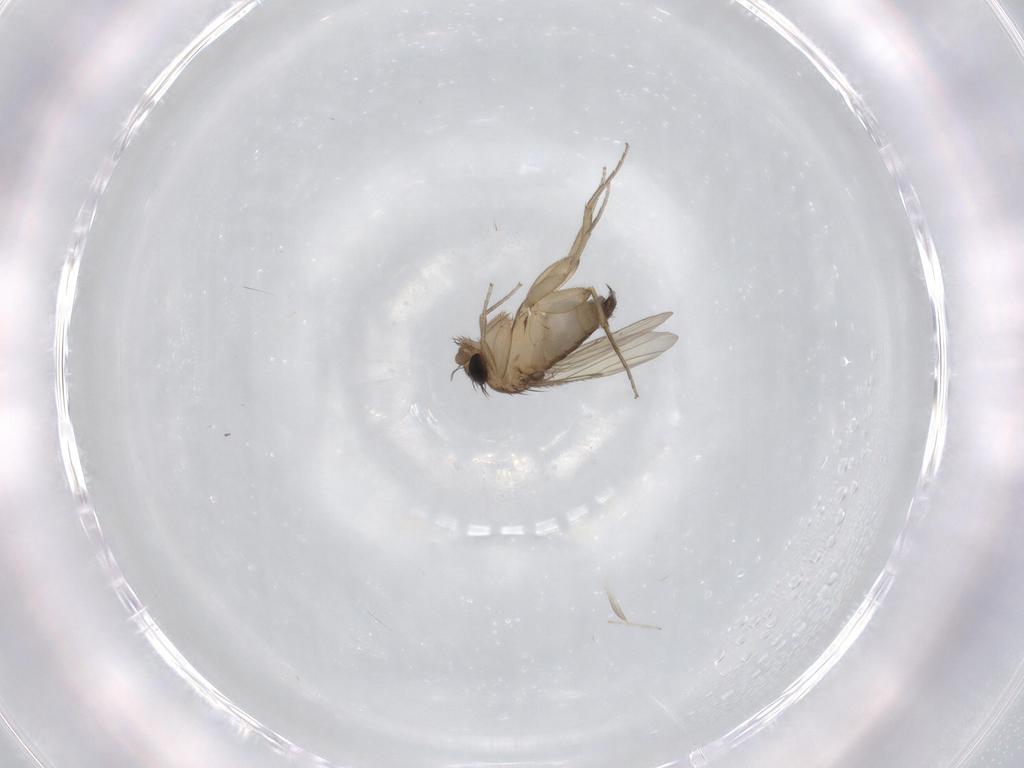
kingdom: Animalia
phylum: Arthropoda
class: Insecta
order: Diptera
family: Phoridae
